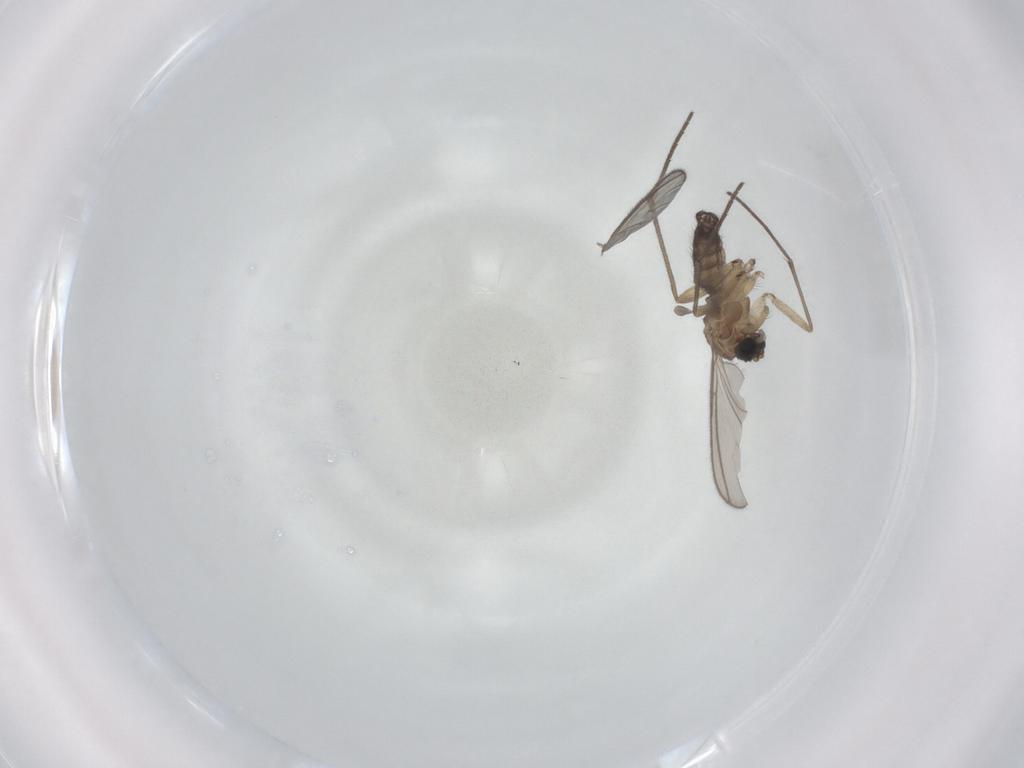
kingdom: Animalia
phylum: Arthropoda
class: Insecta
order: Diptera
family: Sciaridae
